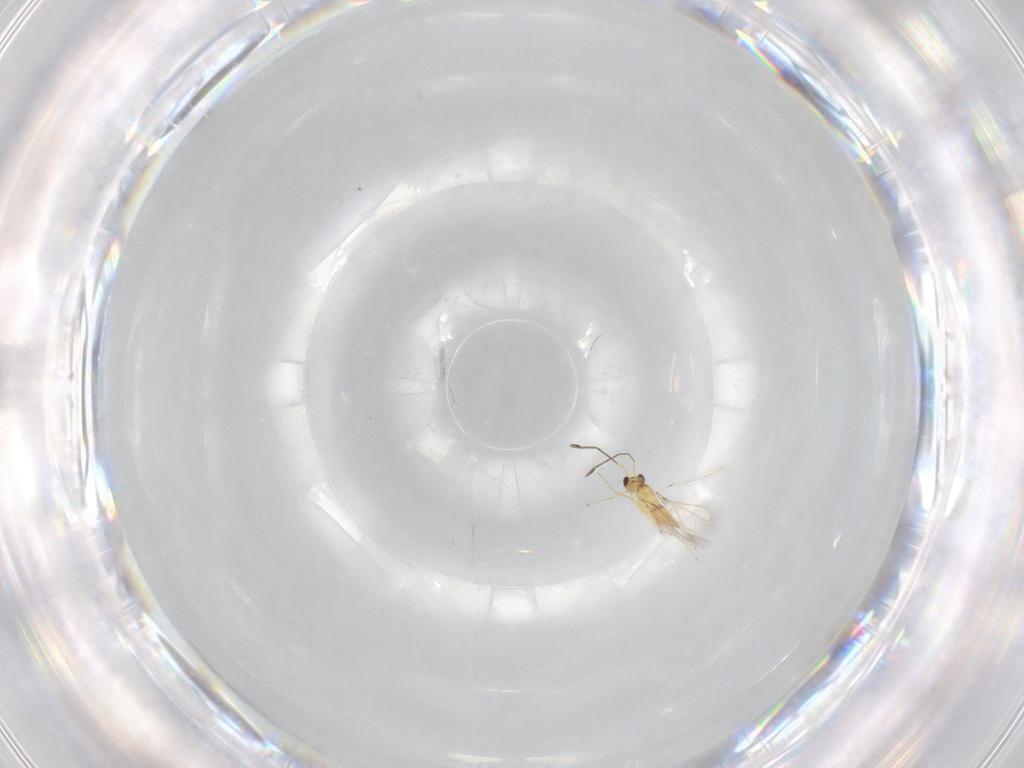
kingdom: Animalia
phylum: Arthropoda
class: Insecta
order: Hymenoptera
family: Mymaridae
